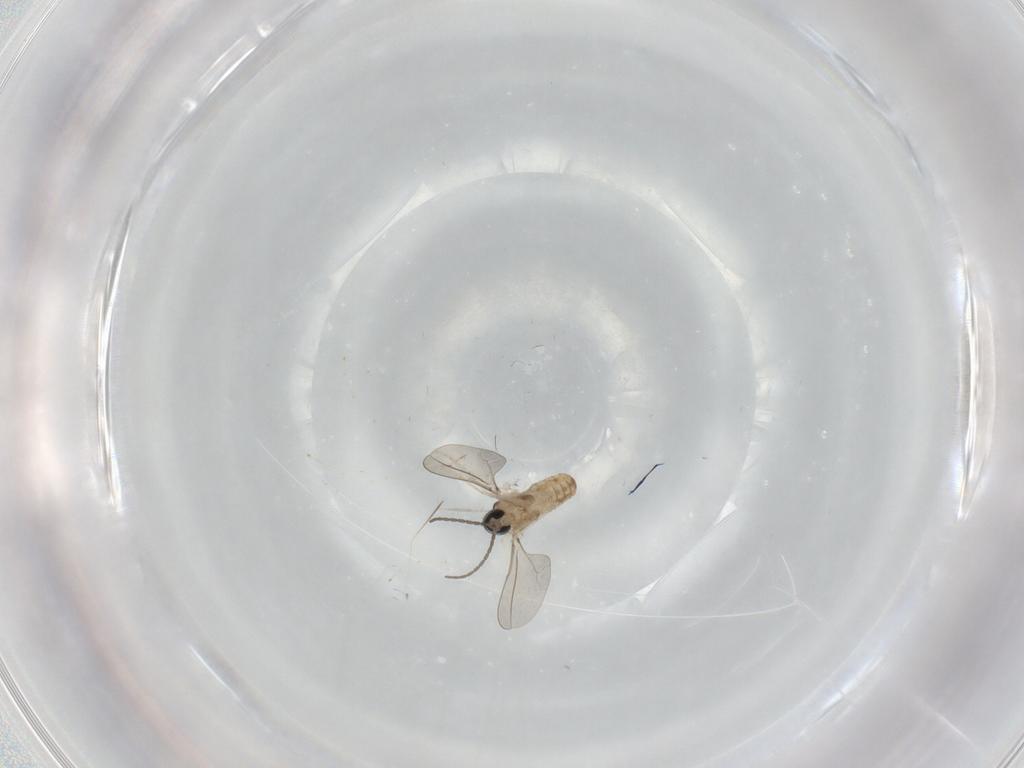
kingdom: Animalia
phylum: Arthropoda
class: Insecta
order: Diptera
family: Cecidomyiidae
